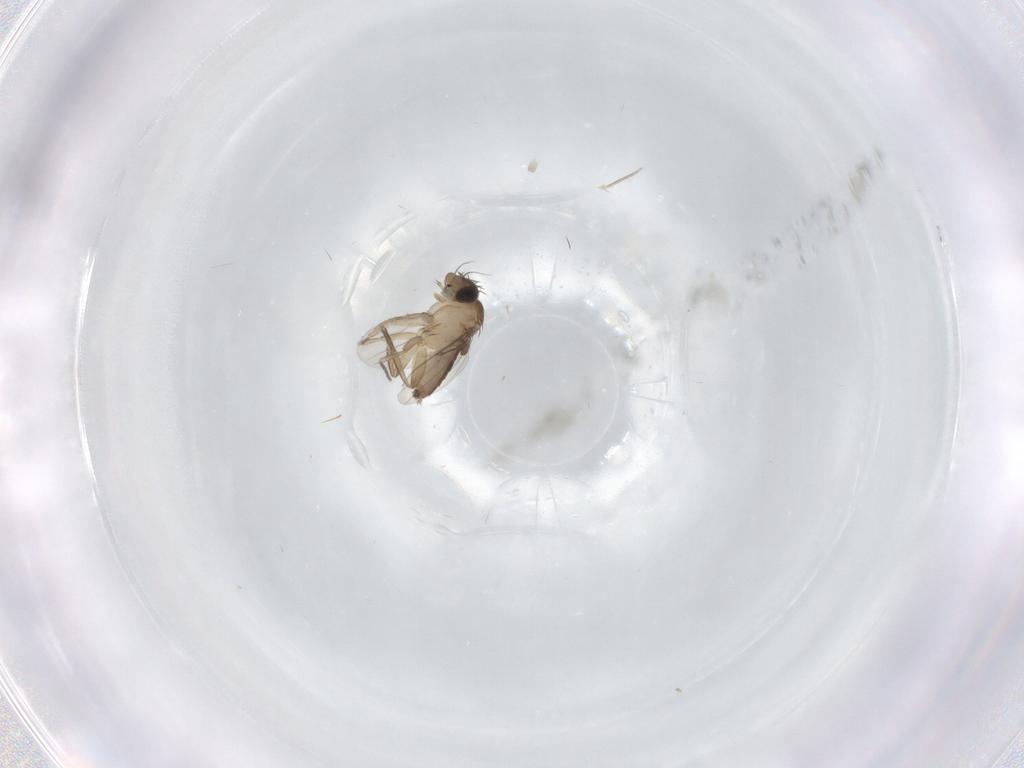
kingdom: Animalia
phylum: Arthropoda
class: Insecta
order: Diptera
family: Phoridae
